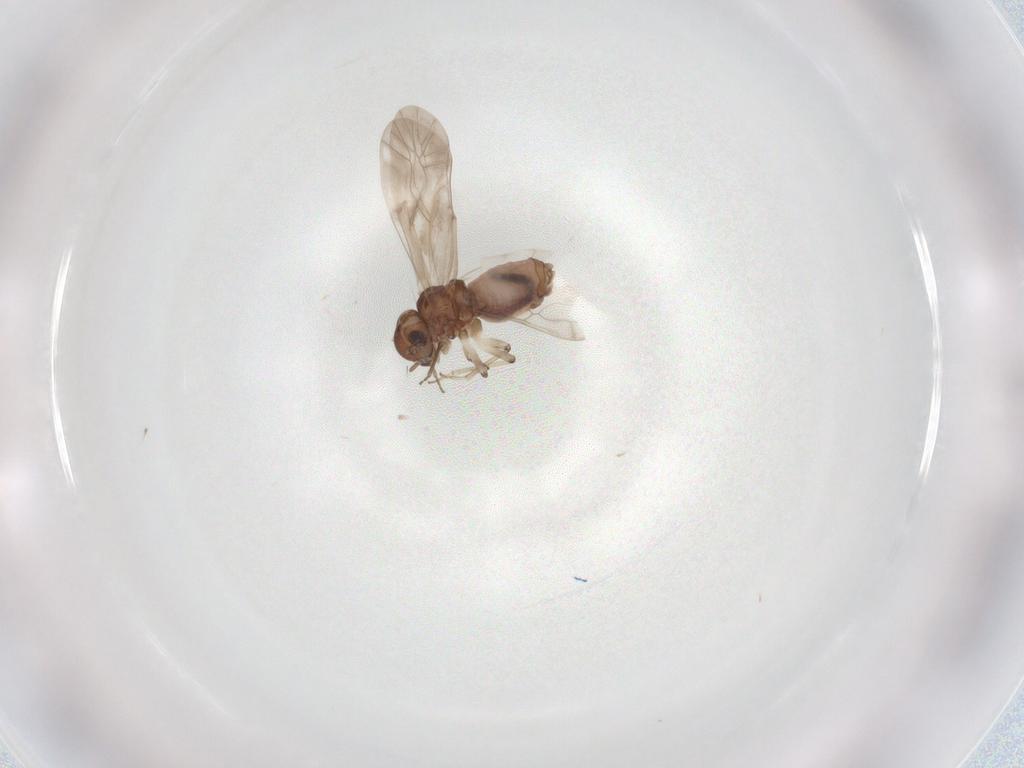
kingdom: Animalia
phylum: Arthropoda
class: Insecta
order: Psocodea
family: Peripsocidae
